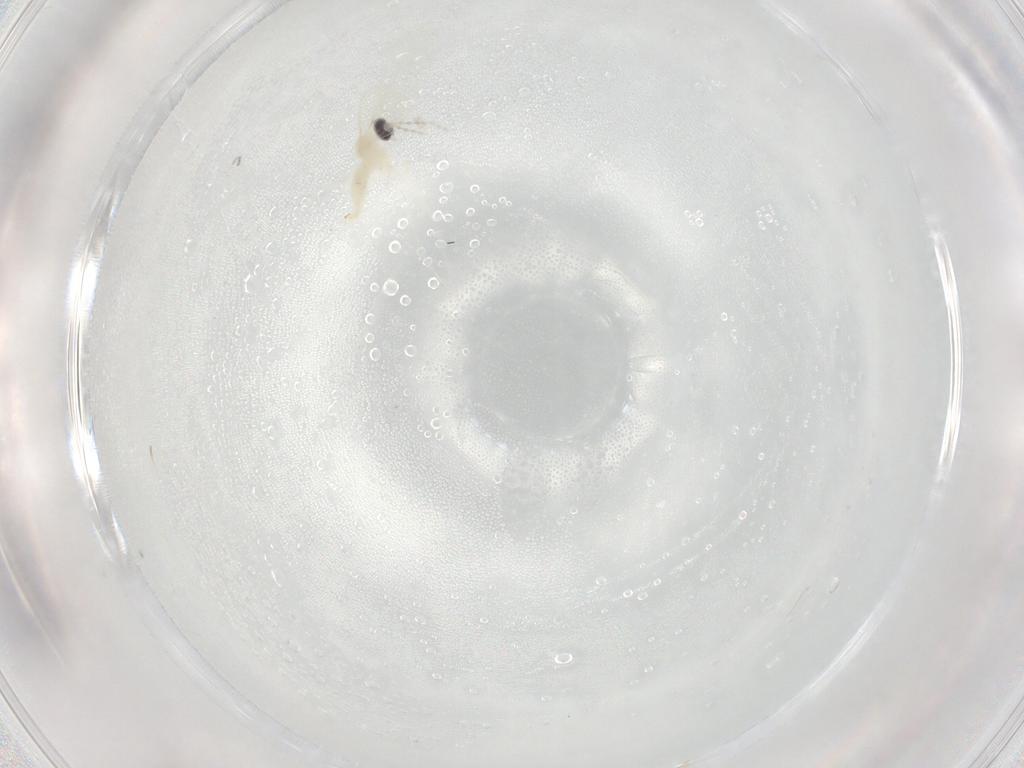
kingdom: Animalia
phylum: Arthropoda
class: Insecta
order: Diptera
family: Cecidomyiidae
